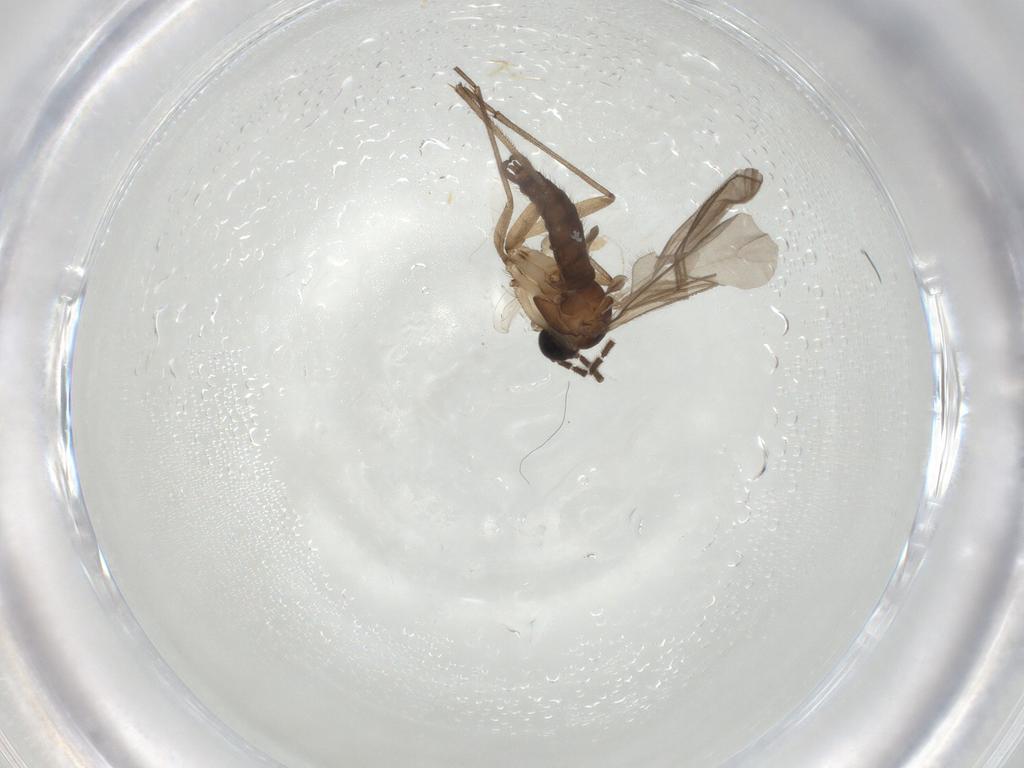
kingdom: Animalia
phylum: Arthropoda
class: Insecta
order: Diptera
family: Sciaridae
